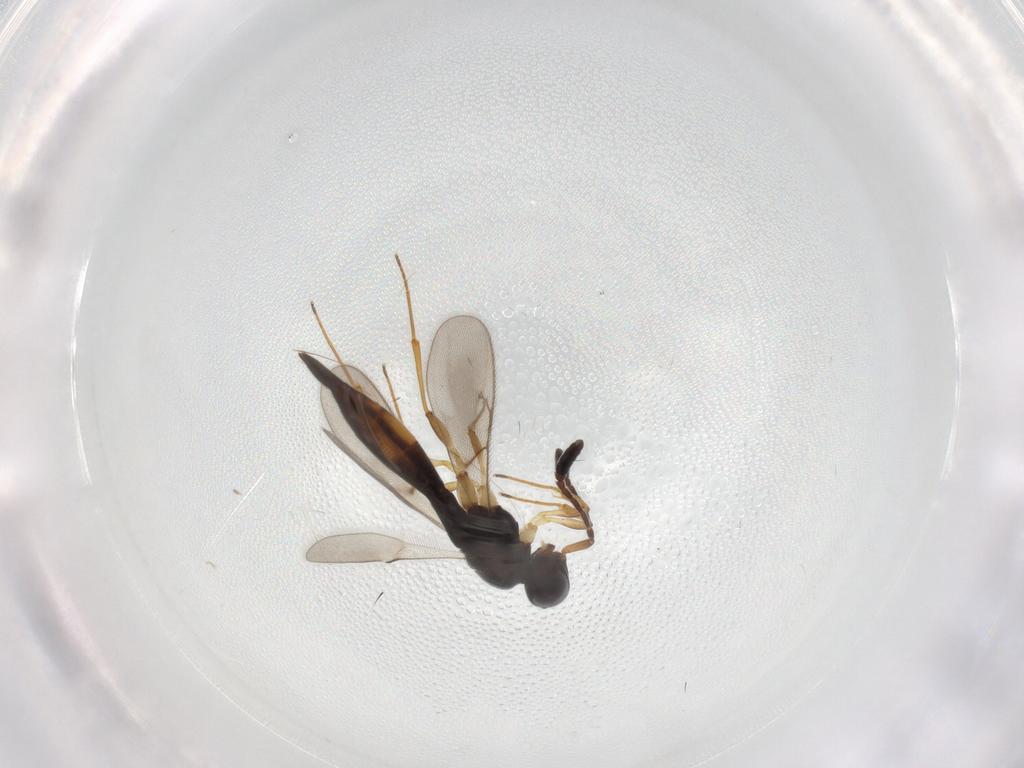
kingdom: Animalia
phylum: Arthropoda
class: Insecta
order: Hymenoptera
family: Scelionidae
